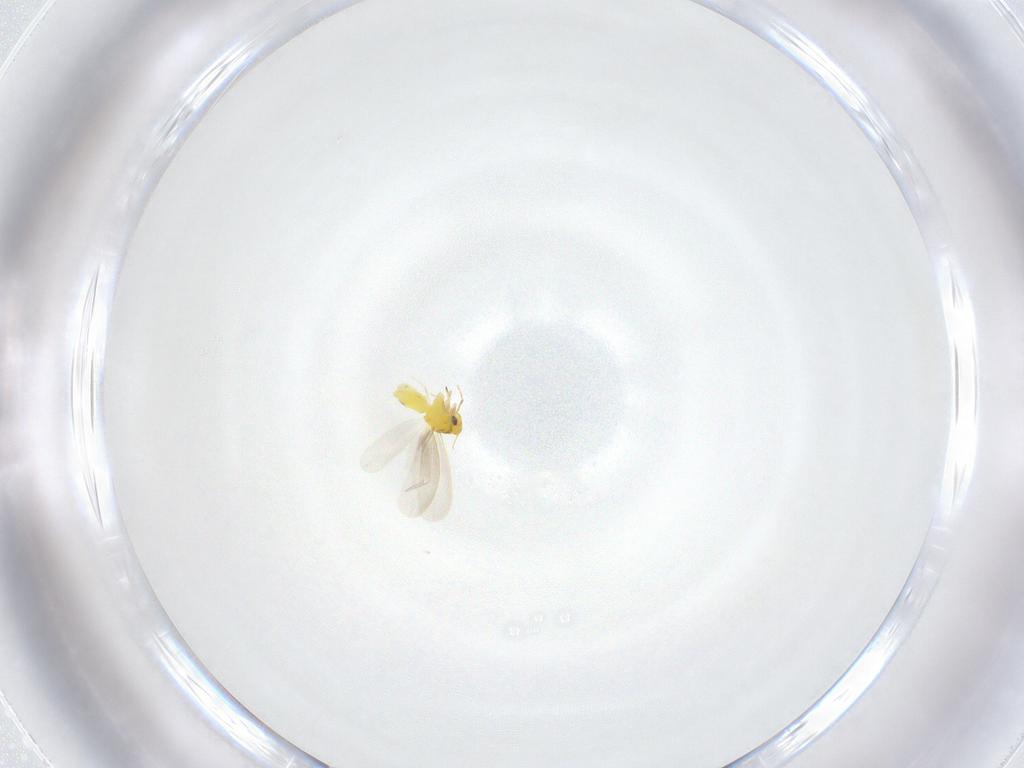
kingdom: Animalia
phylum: Arthropoda
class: Insecta
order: Hemiptera
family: Aleyrodidae
